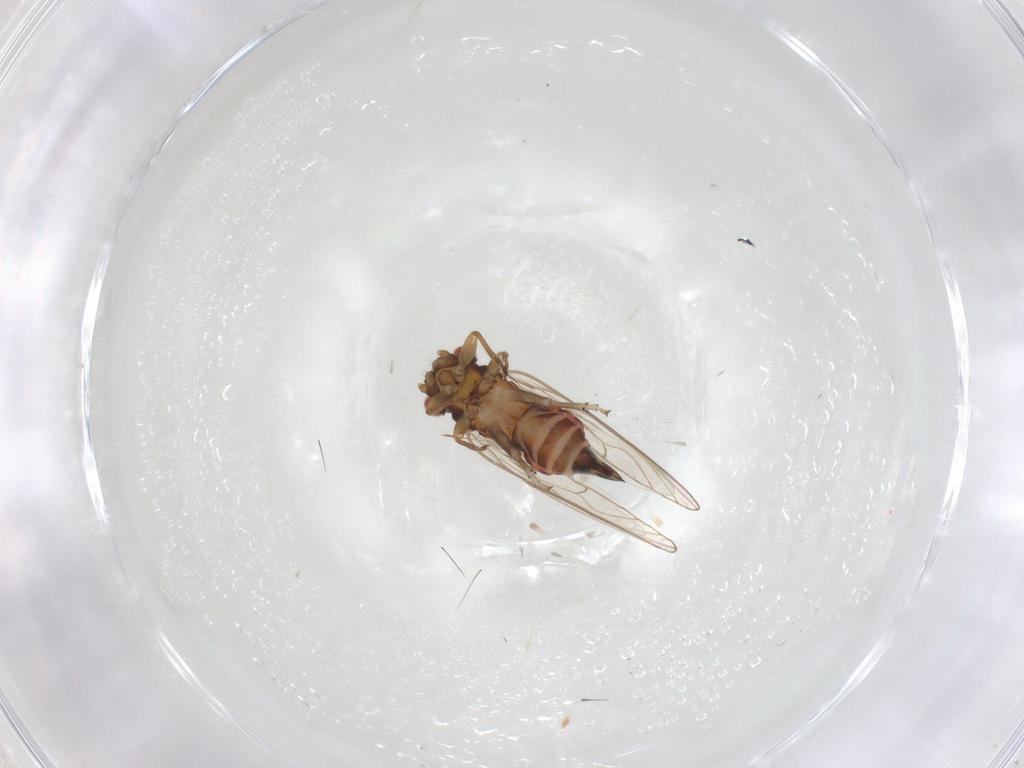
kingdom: Animalia
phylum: Arthropoda
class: Insecta
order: Hemiptera
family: Psyllidae
